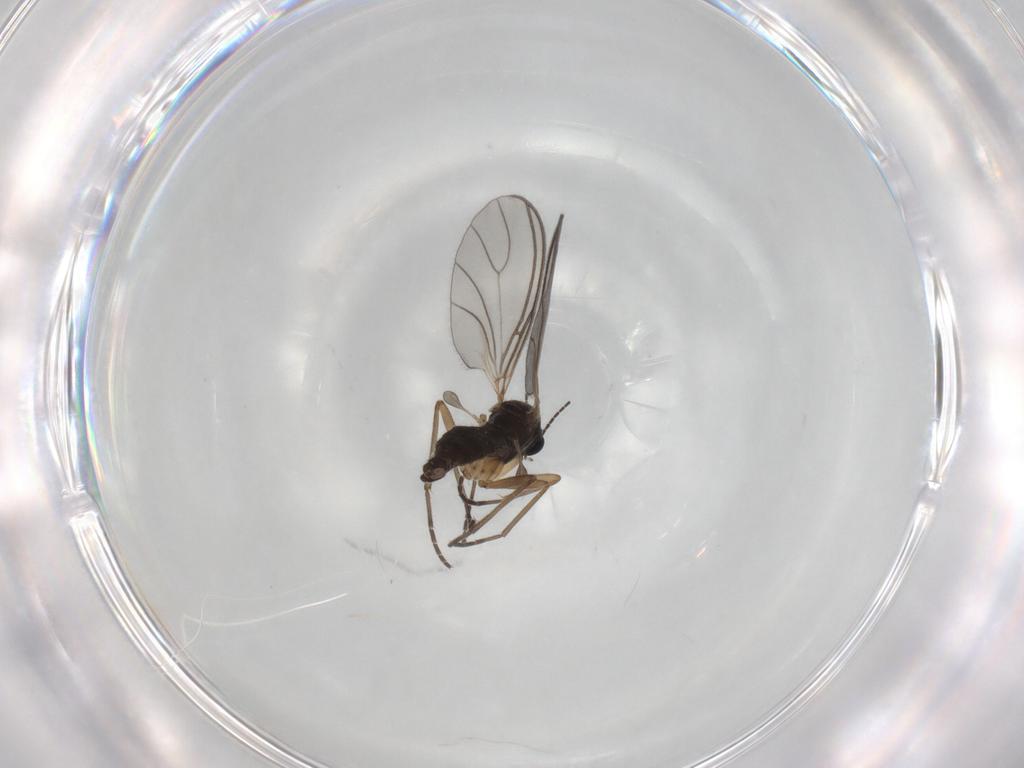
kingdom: Animalia
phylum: Arthropoda
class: Insecta
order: Diptera
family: Sciaridae
